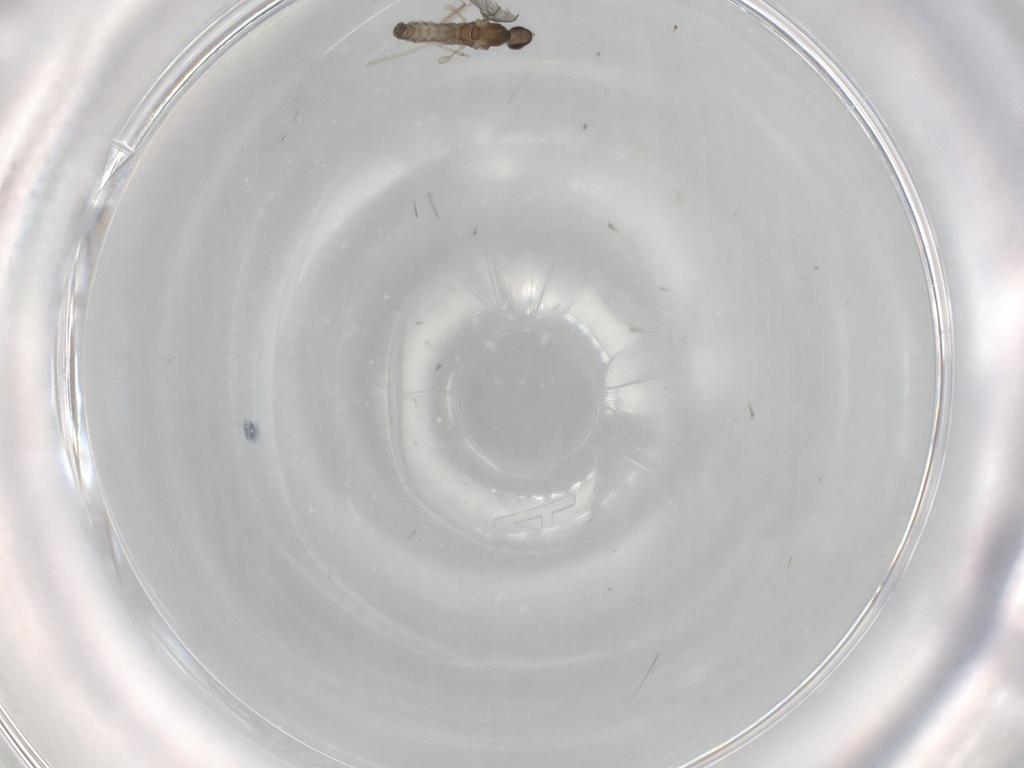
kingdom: Animalia
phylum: Arthropoda
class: Insecta
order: Diptera
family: Cecidomyiidae
